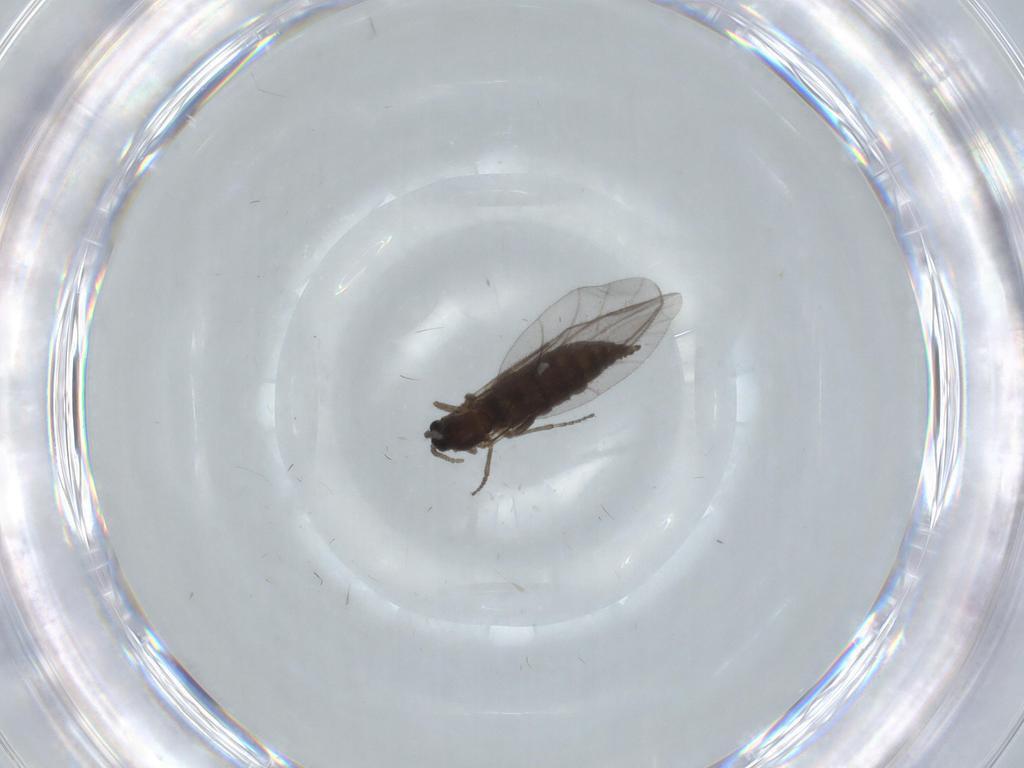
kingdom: Animalia
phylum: Arthropoda
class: Insecta
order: Diptera
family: Sciaridae
